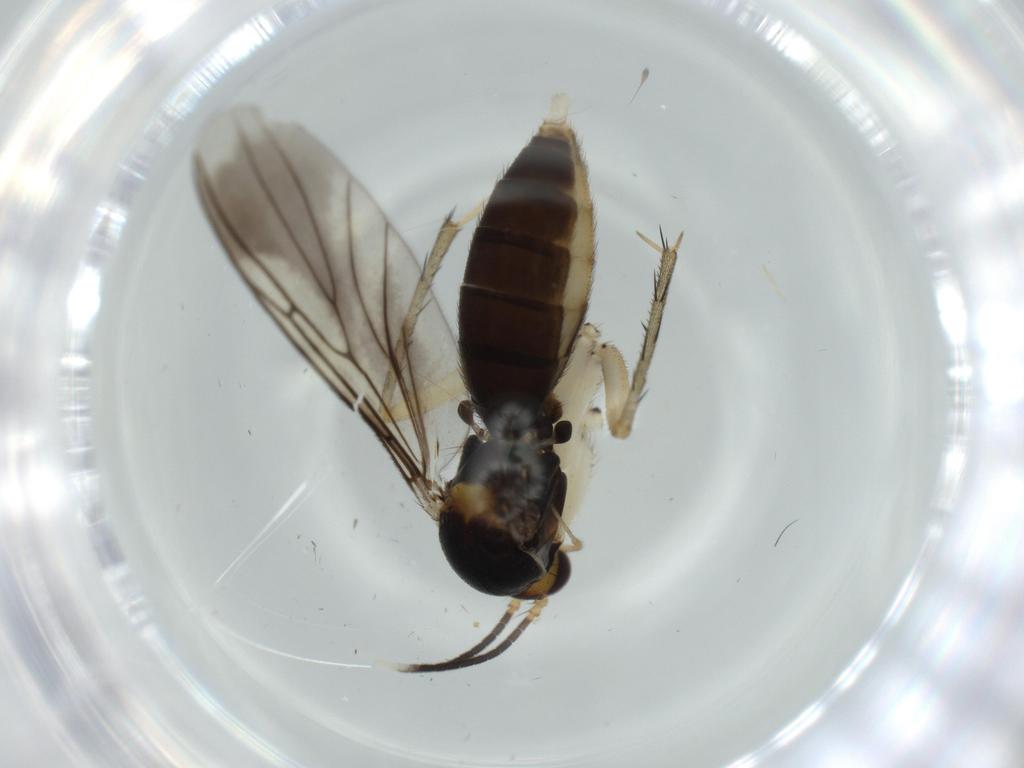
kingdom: Animalia
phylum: Arthropoda
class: Insecta
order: Diptera
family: Mycetophilidae
